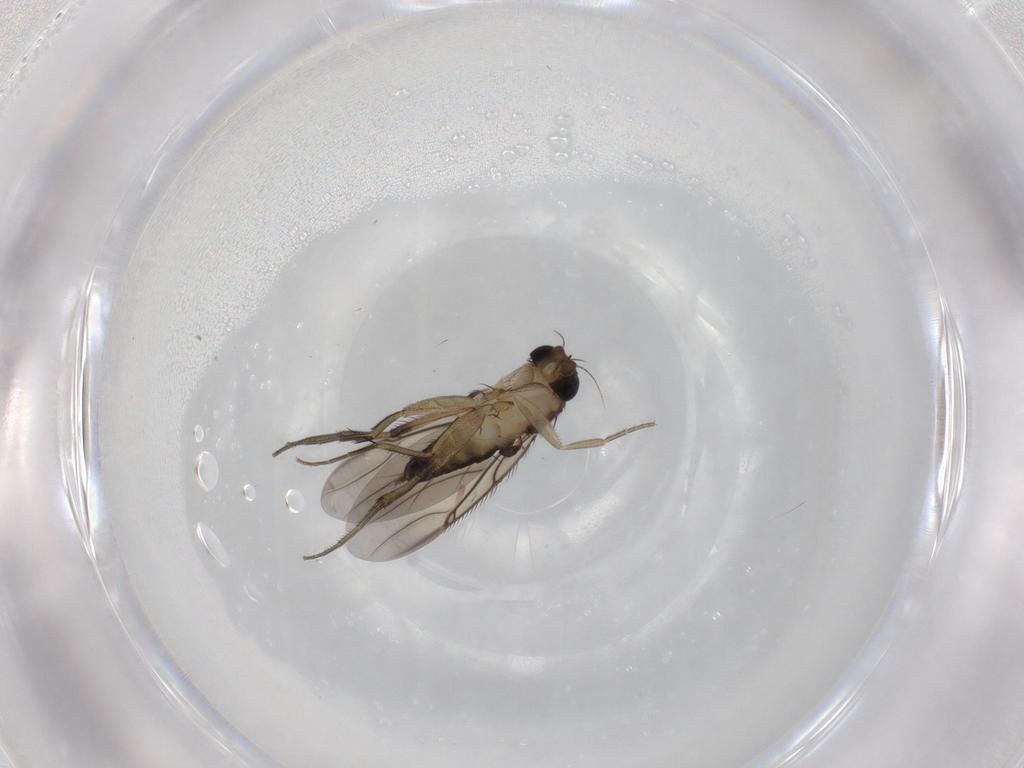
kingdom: Animalia
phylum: Arthropoda
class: Insecta
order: Diptera
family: Phoridae
